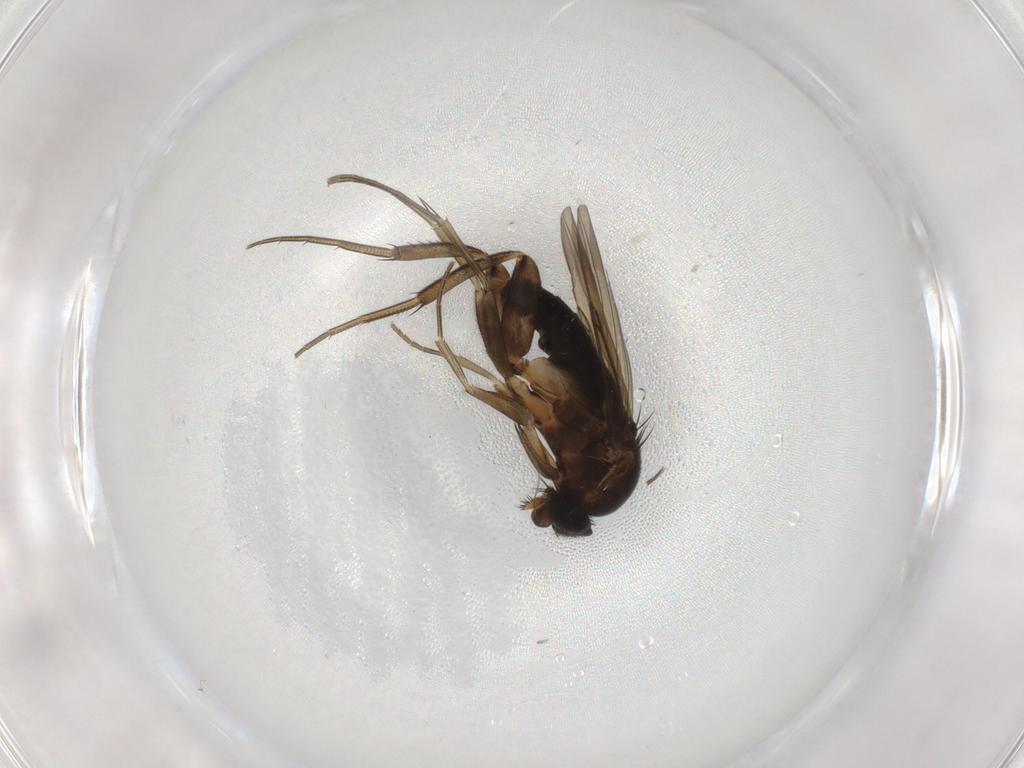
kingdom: Animalia
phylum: Arthropoda
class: Insecta
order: Diptera
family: Phoridae
